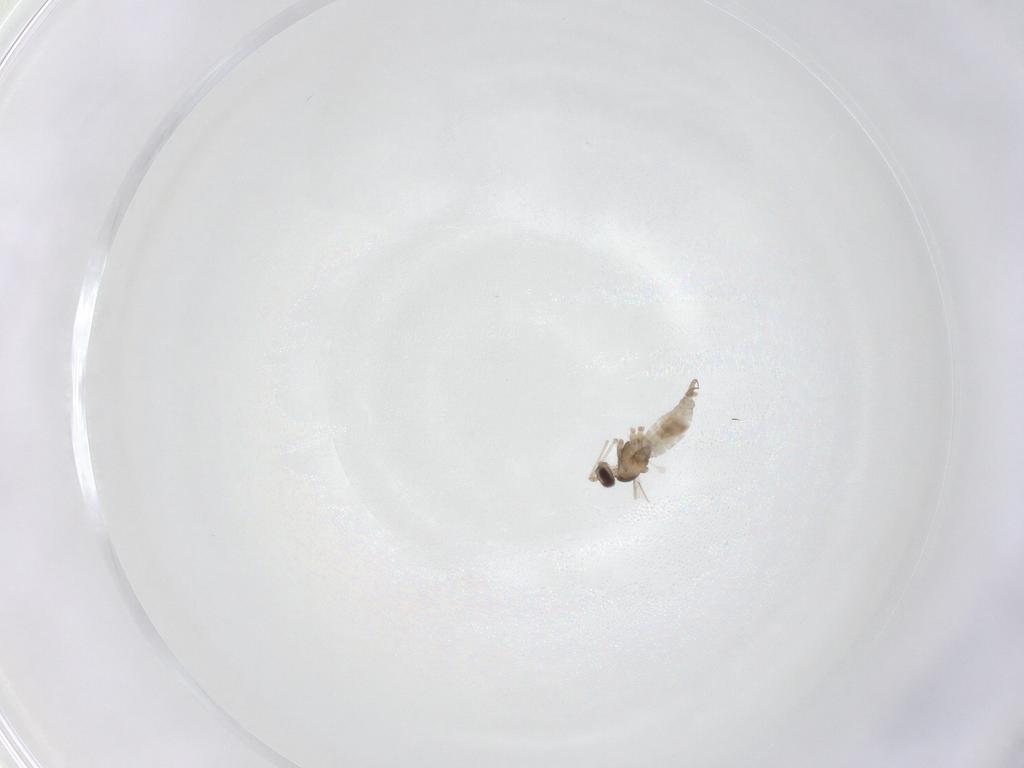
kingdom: Animalia
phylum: Arthropoda
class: Insecta
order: Diptera
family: Cecidomyiidae
